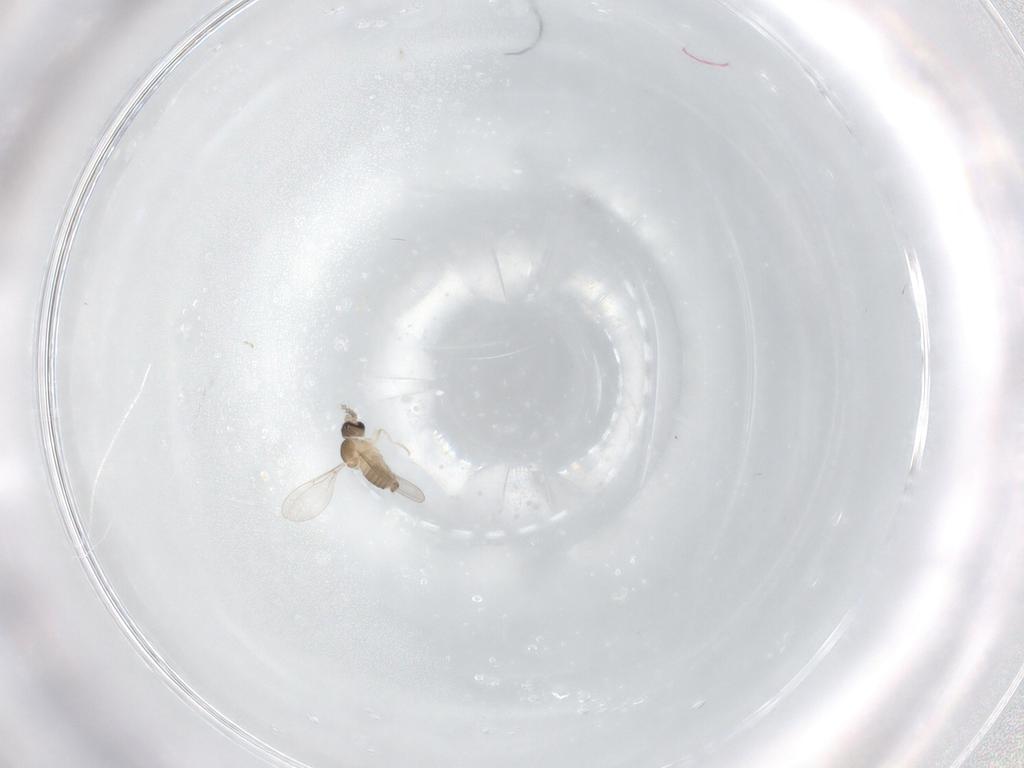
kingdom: Animalia
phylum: Arthropoda
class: Insecta
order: Diptera
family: Cecidomyiidae
